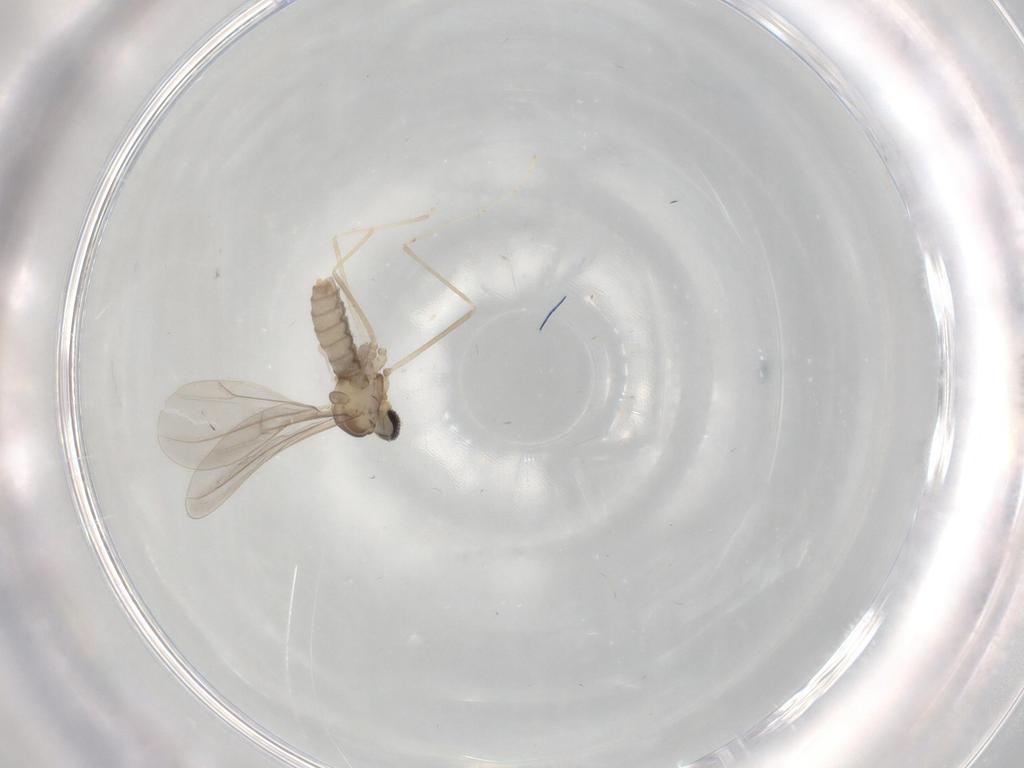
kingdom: Animalia
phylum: Arthropoda
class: Insecta
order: Diptera
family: Cecidomyiidae
